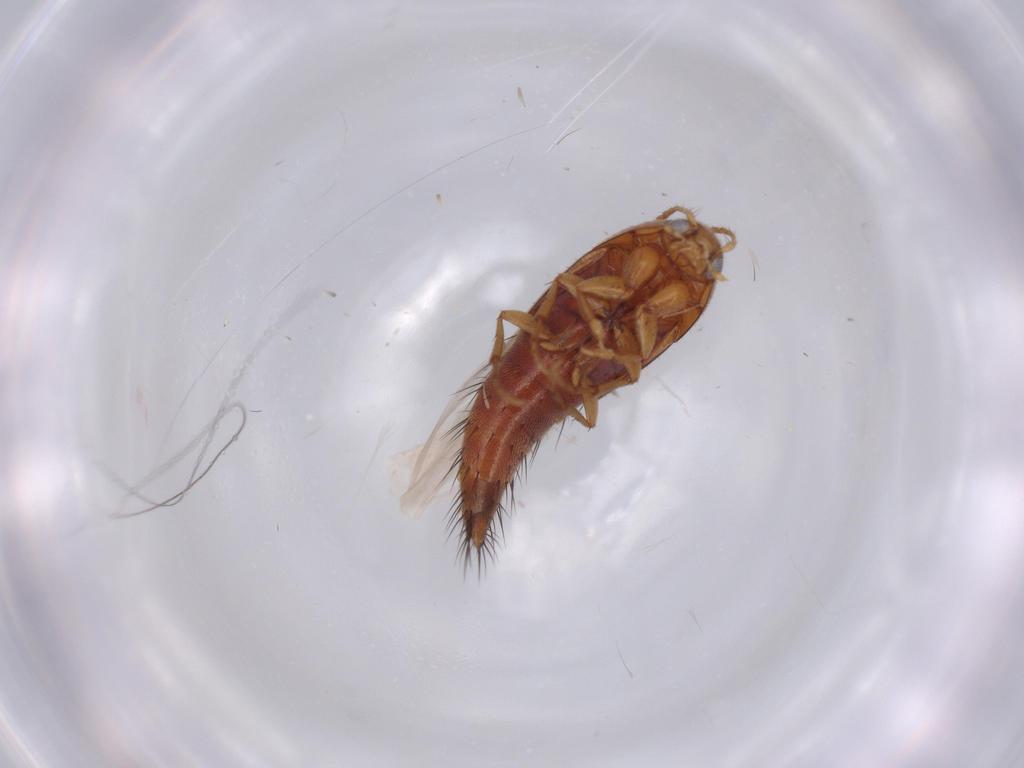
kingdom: Animalia
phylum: Arthropoda
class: Insecta
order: Coleoptera
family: Staphylinidae
